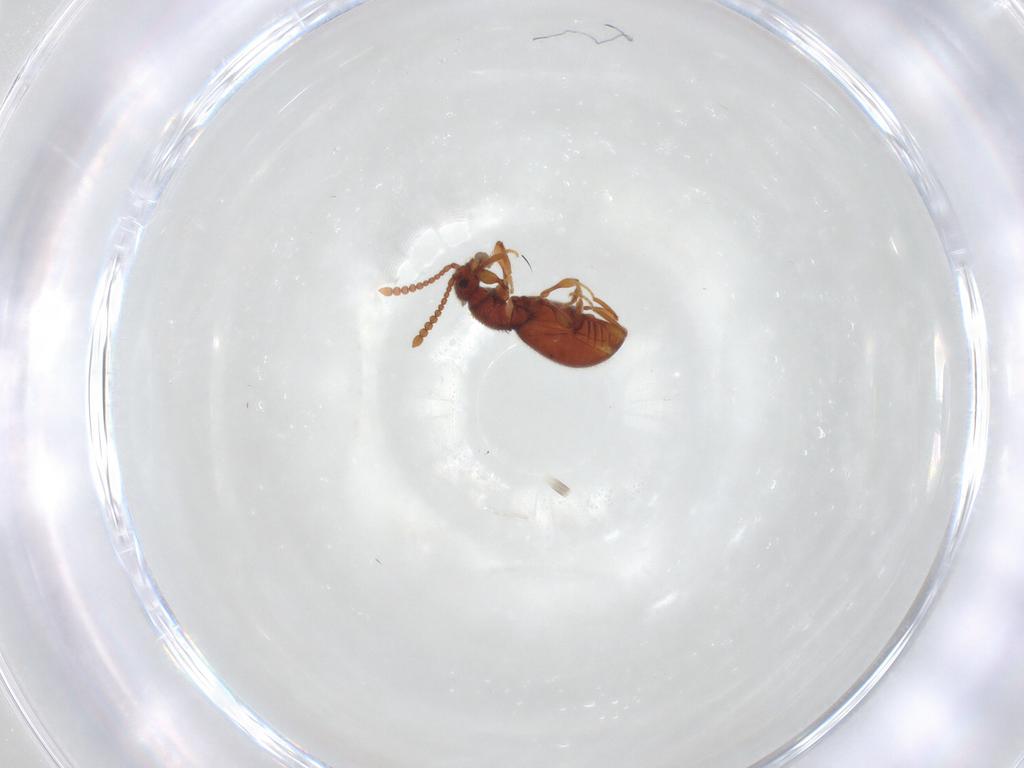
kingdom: Animalia
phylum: Arthropoda
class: Insecta
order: Coleoptera
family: Staphylinidae
